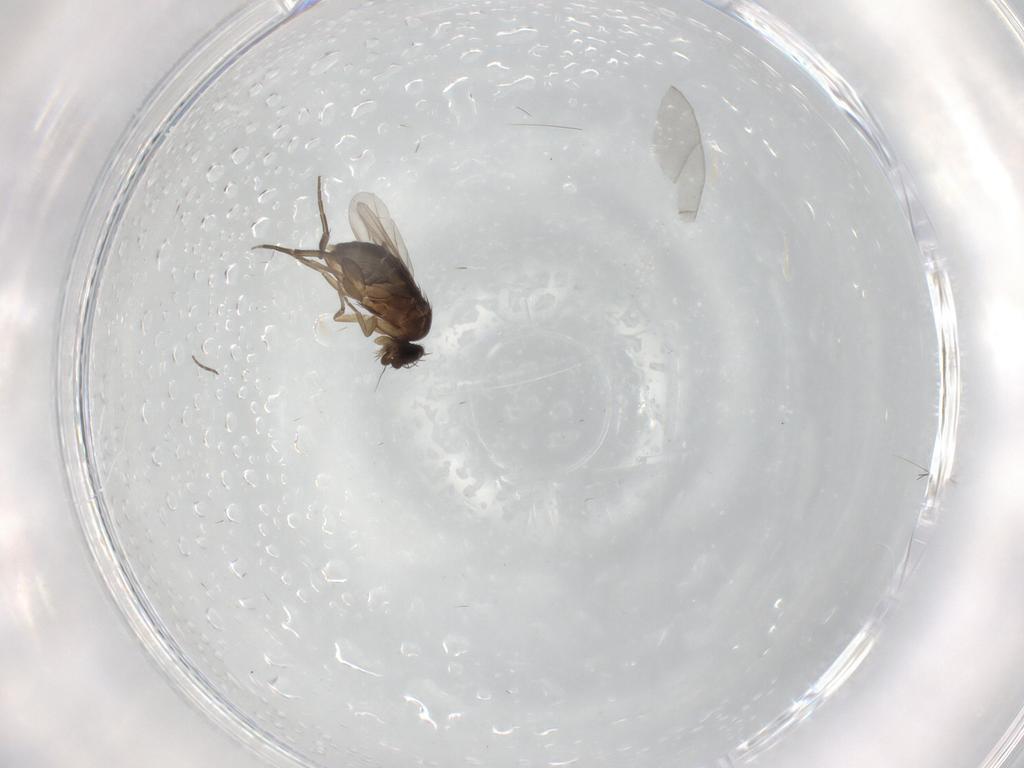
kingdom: Animalia
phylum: Arthropoda
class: Insecta
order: Diptera
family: Phoridae
